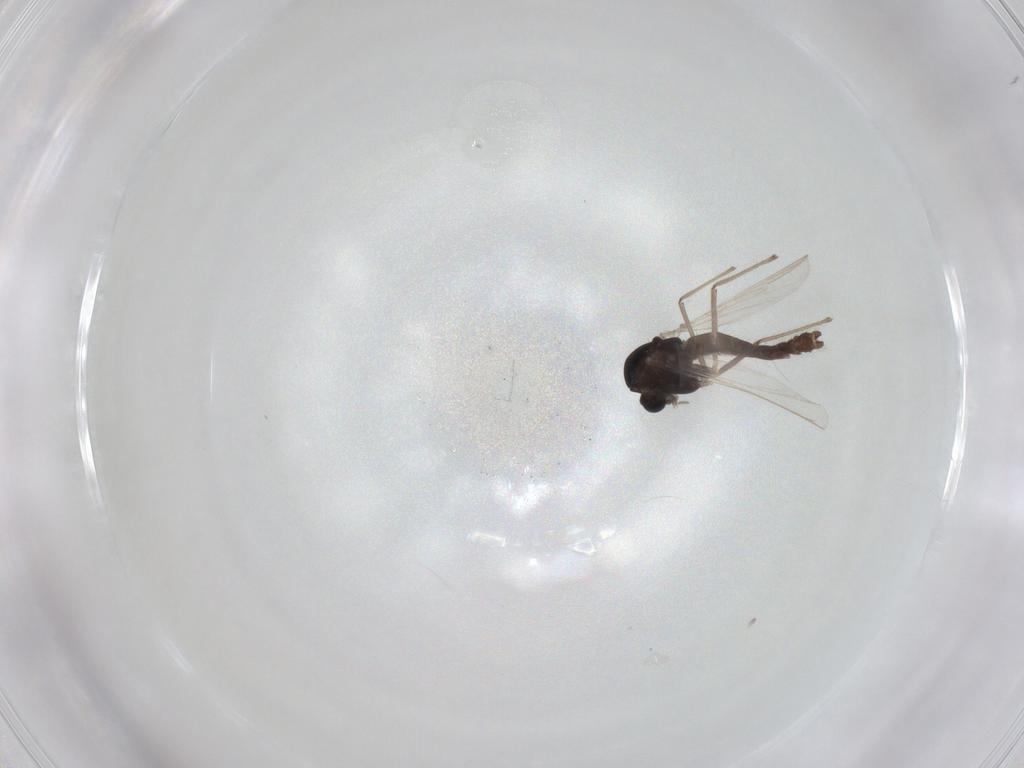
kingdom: Animalia
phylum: Arthropoda
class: Insecta
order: Diptera
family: Chironomidae
